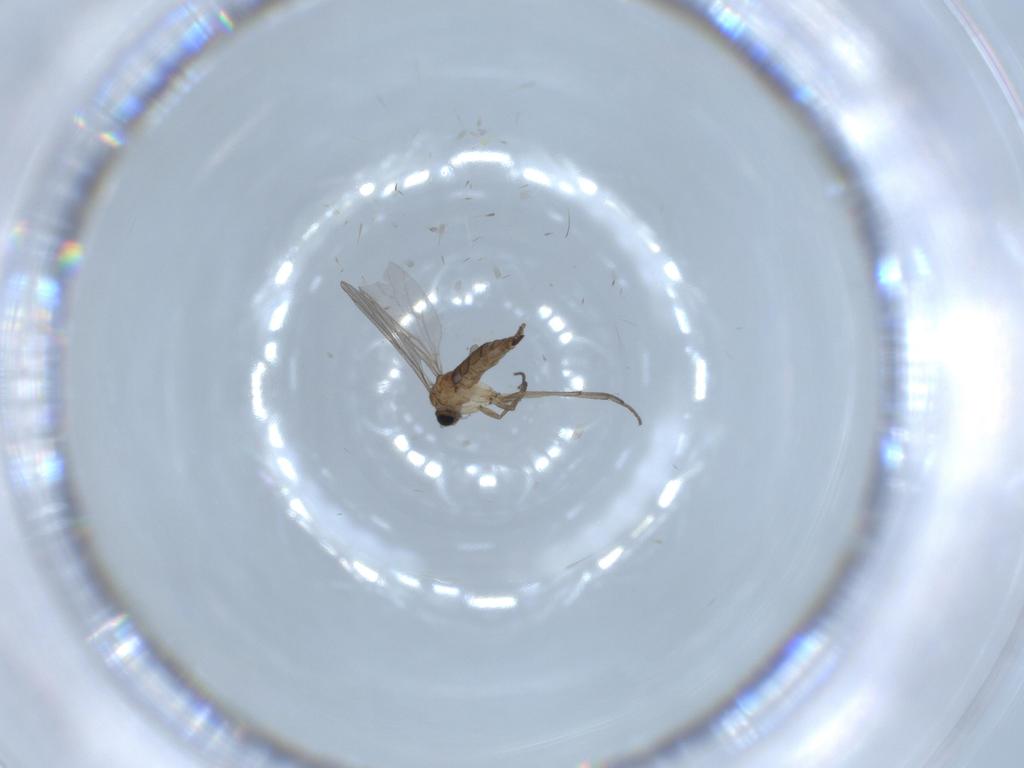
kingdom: Animalia
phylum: Arthropoda
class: Insecta
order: Diptera
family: Sciaridae
